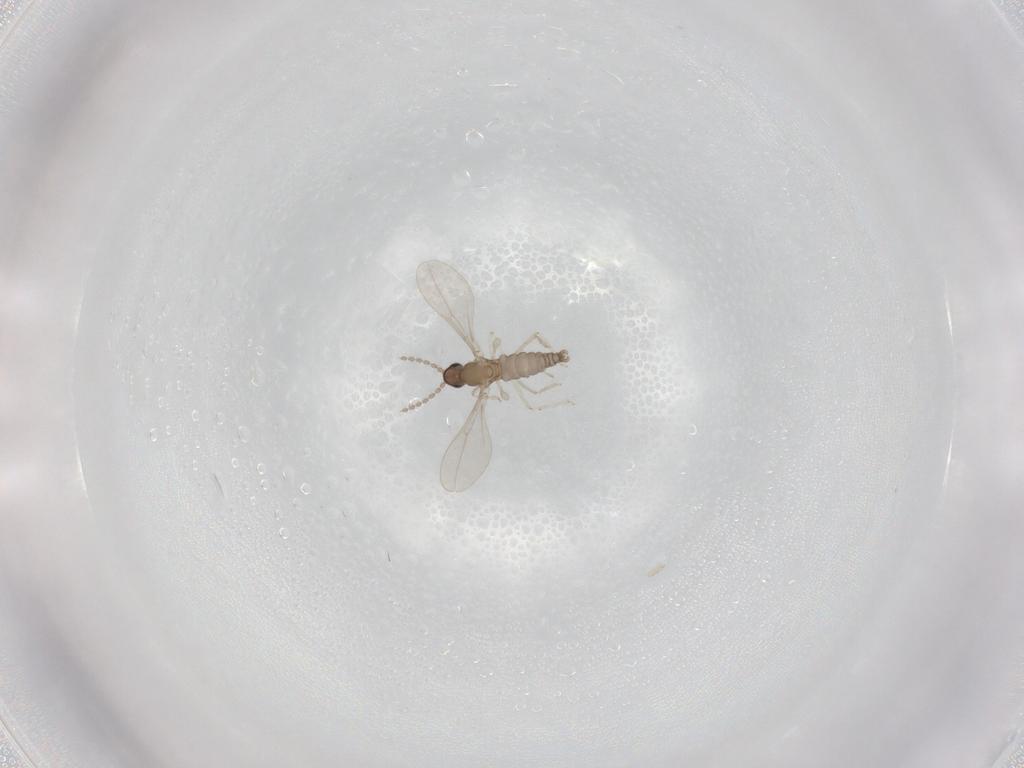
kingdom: Animalia
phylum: Arthropoda
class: Insecta
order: Diptera
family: Cecidomyiidae
